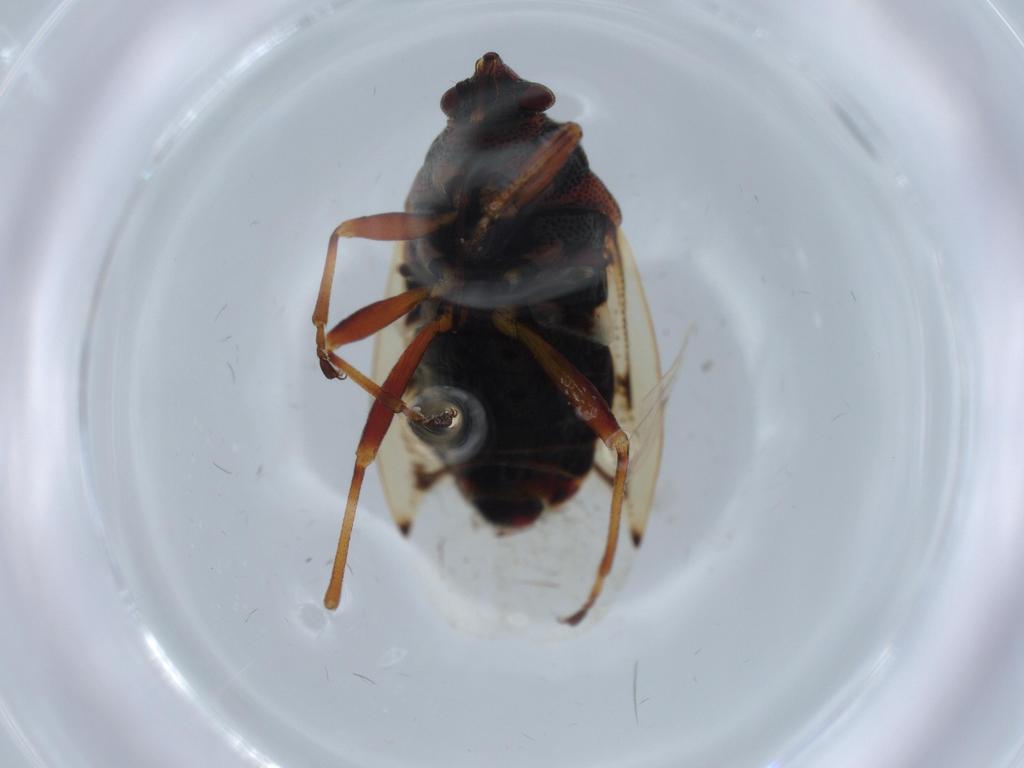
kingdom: Animalia
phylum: Arthropoda
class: Insecta
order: Hemiptera
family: Lygaeidae
